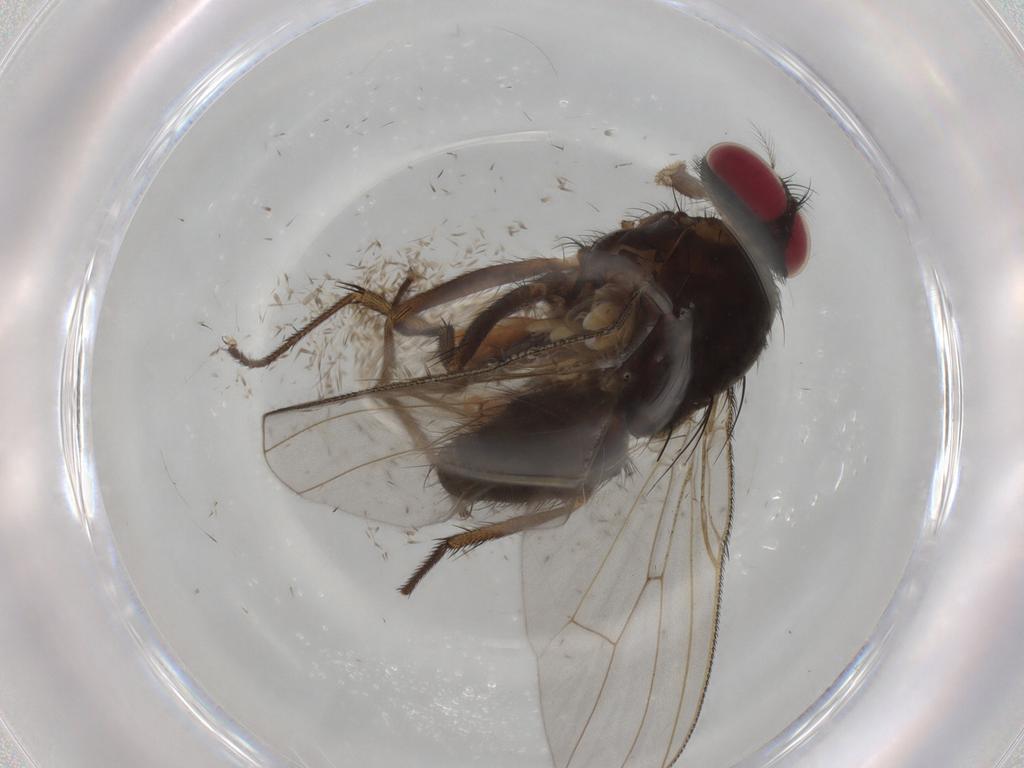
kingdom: Animalia
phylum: Arthropoda
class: Insecta
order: Diptera
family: Muscidae
